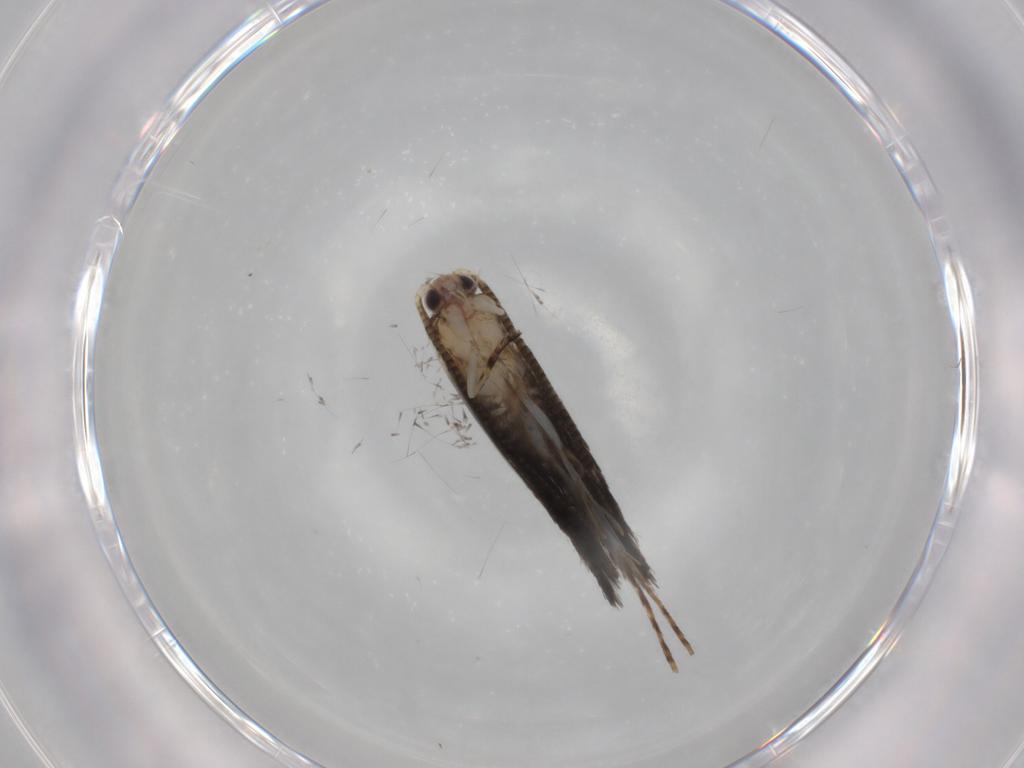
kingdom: Animalia
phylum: Arthropoda
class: Insecta
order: Lepidoptera
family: Tineidae
